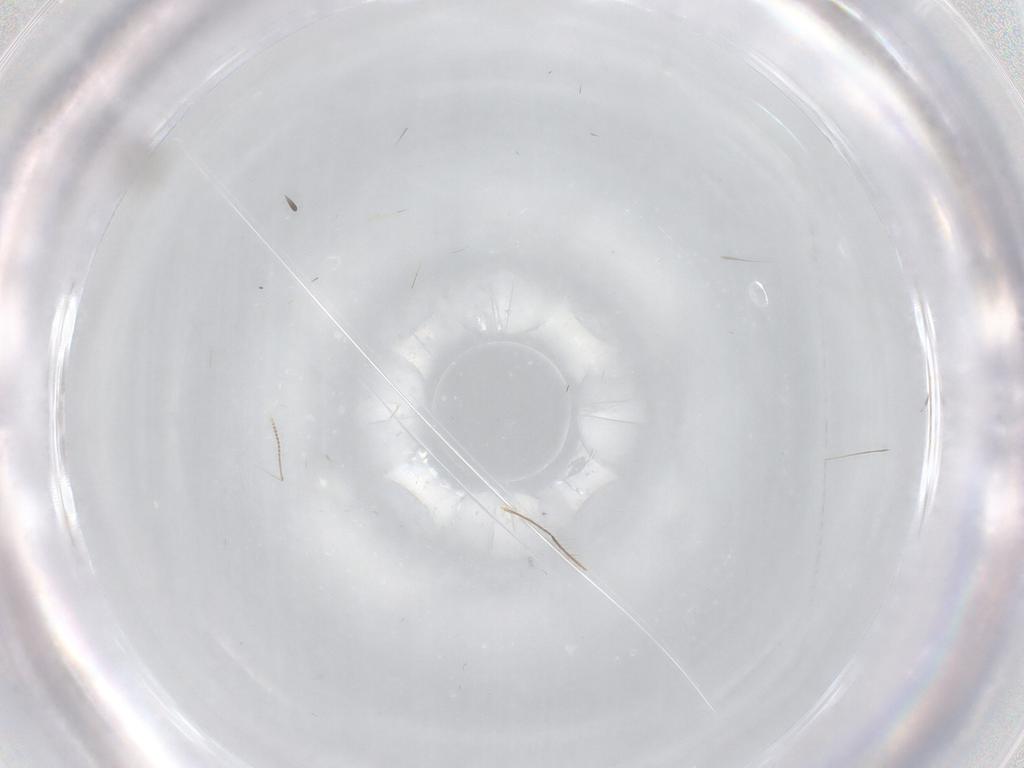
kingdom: Animalia
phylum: Arthropoda
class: Insecta
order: Diptera
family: Chironomidae
